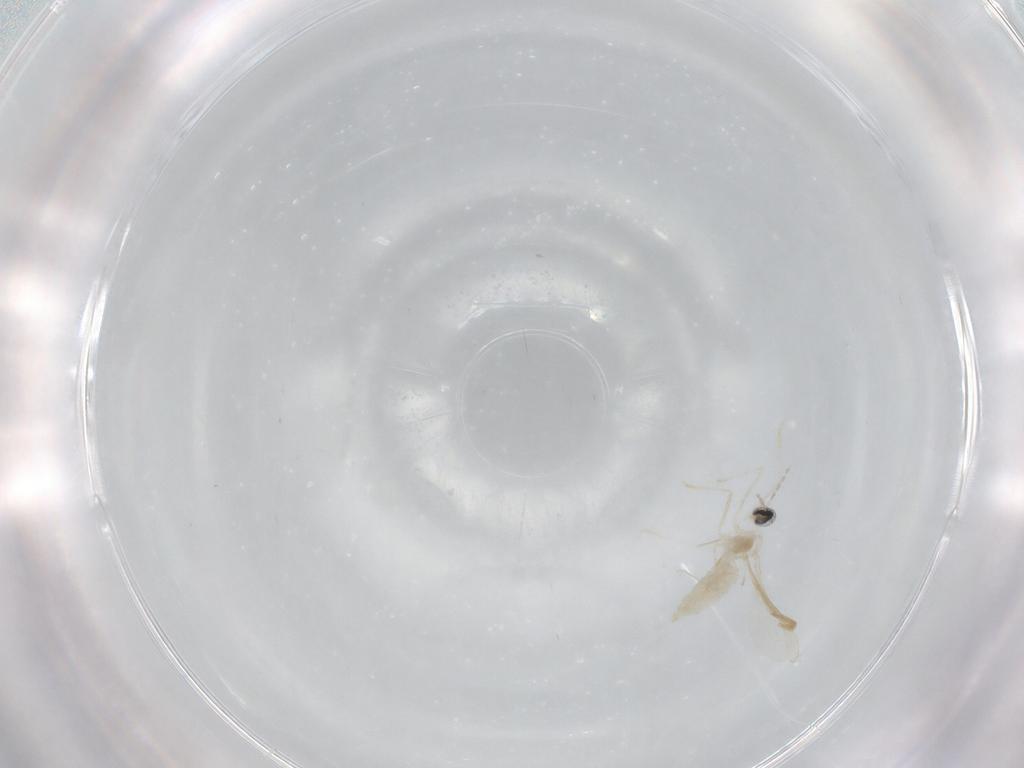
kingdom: Animalia
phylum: Arthropoda
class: Insecta
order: Diptera
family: Cecidomyiidae
